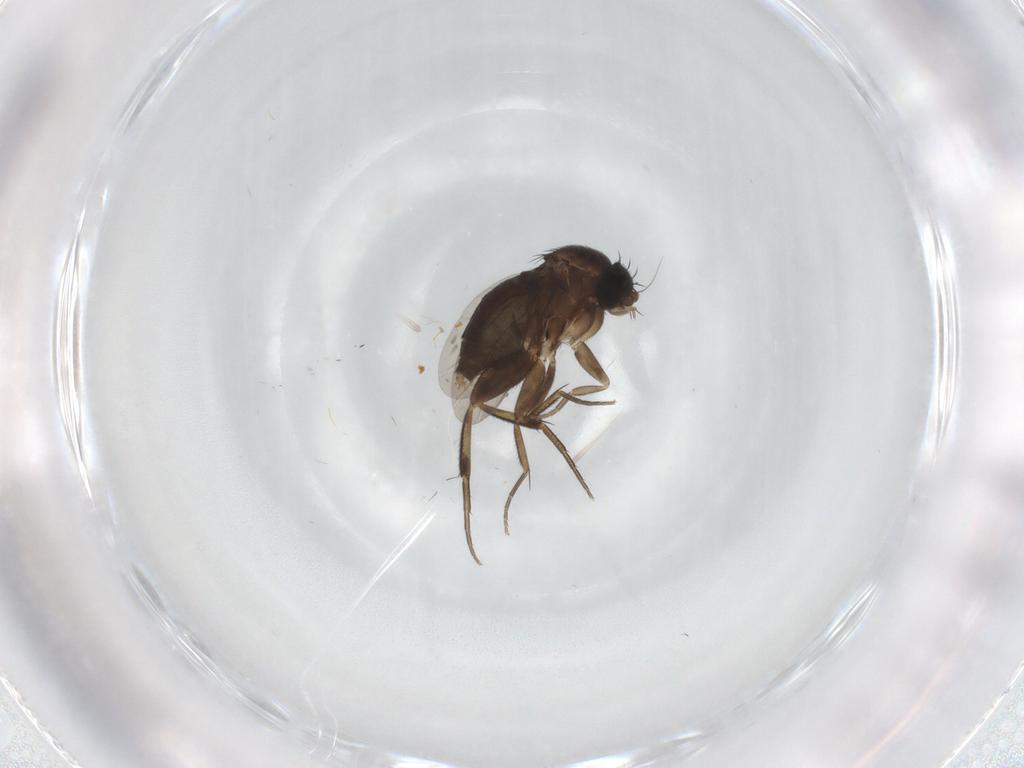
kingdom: Animalia
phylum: Arthropoda
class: Insecta
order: Diptera
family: Phoridae
